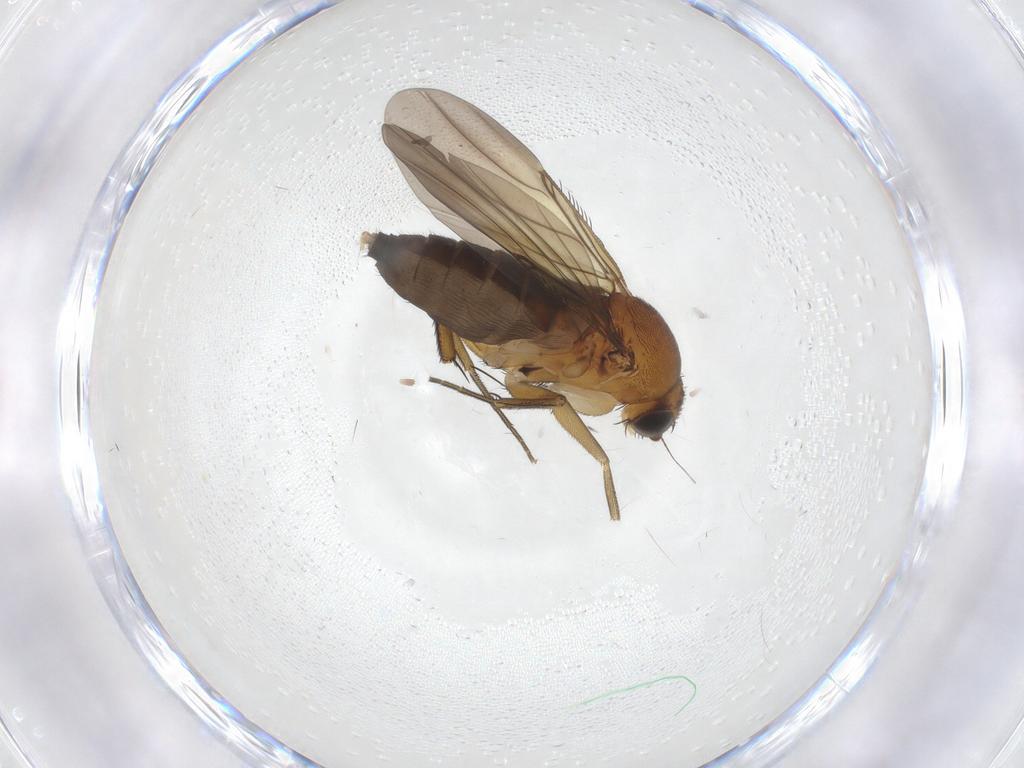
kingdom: Animalia
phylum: Arthropoda
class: Insecta
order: Diptera
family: Phoridae
